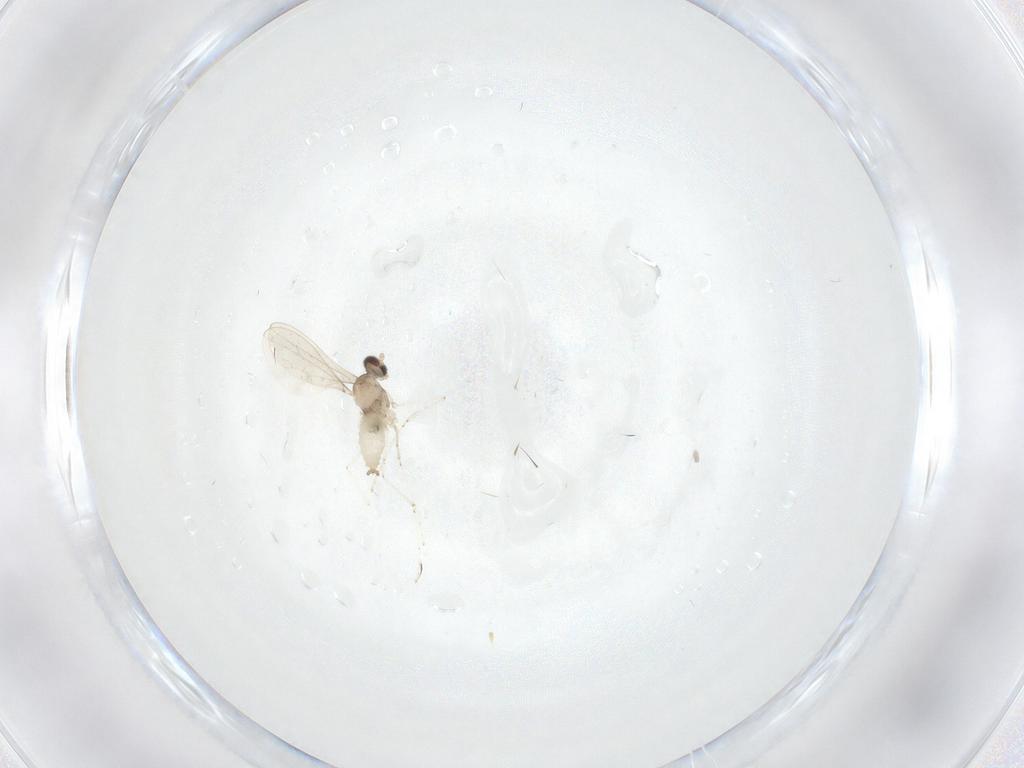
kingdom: Animalia
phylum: Arthropoda
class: Insecta
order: Diptera
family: Cecidomyiidae
